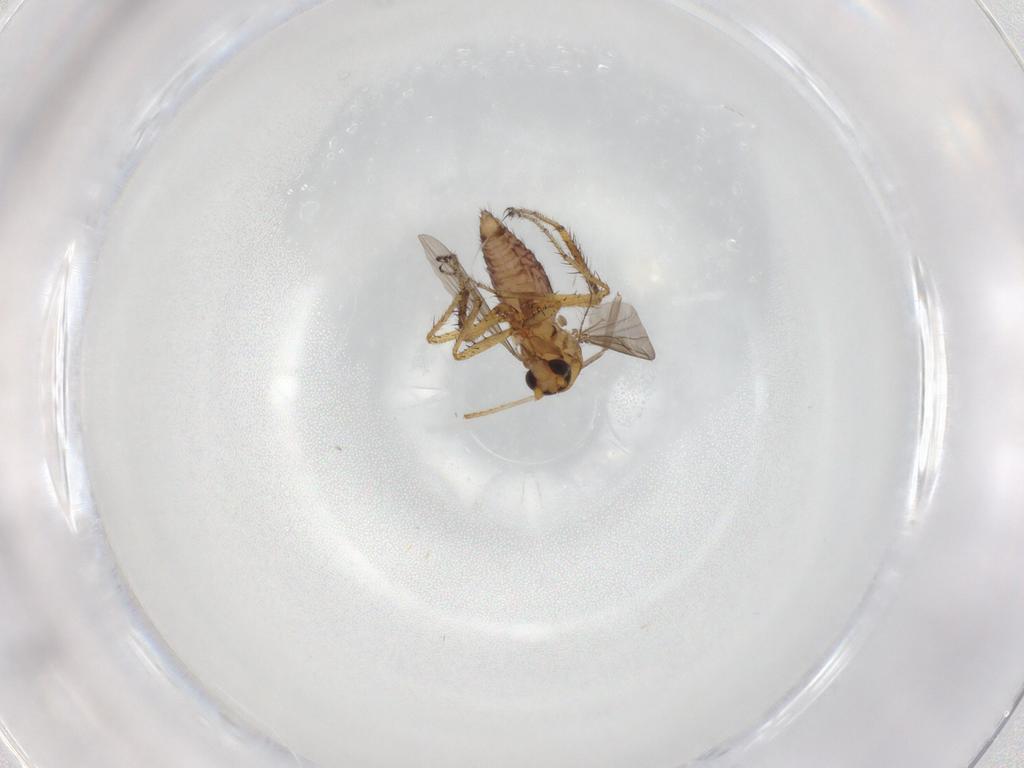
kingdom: Animalia
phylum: Arthropoda
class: Insecta
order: Diptera
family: Ceratopogonidae
